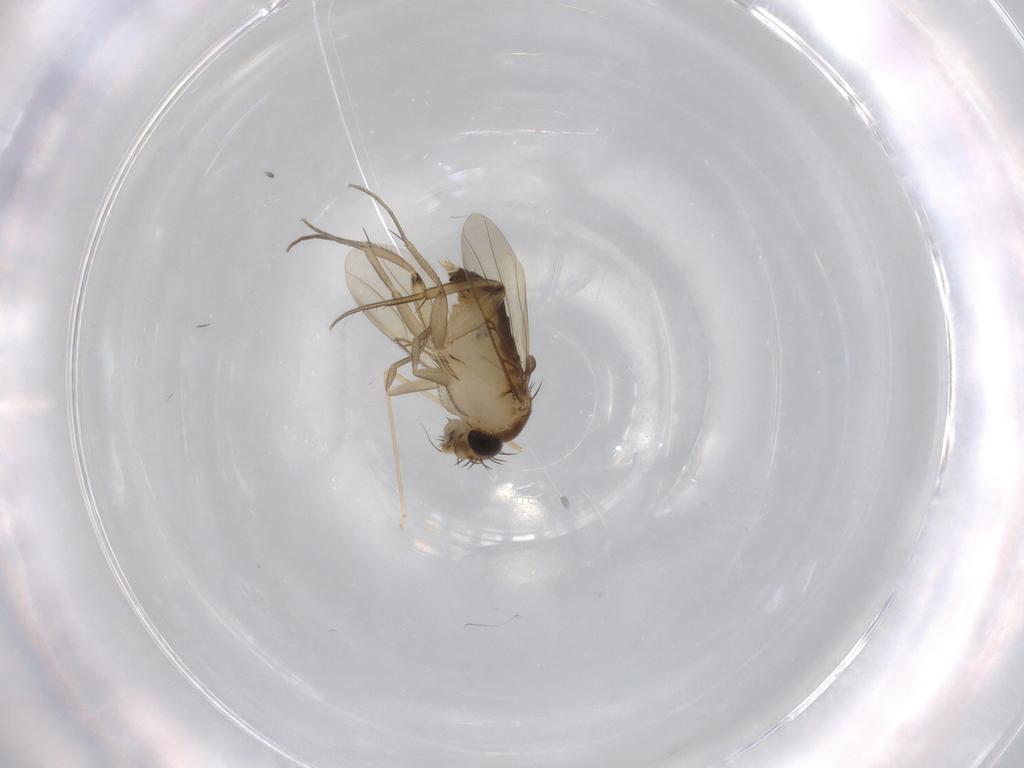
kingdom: Animalia
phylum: Arthropoda
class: Insecta
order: Diptera
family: Cecidomyiidae
